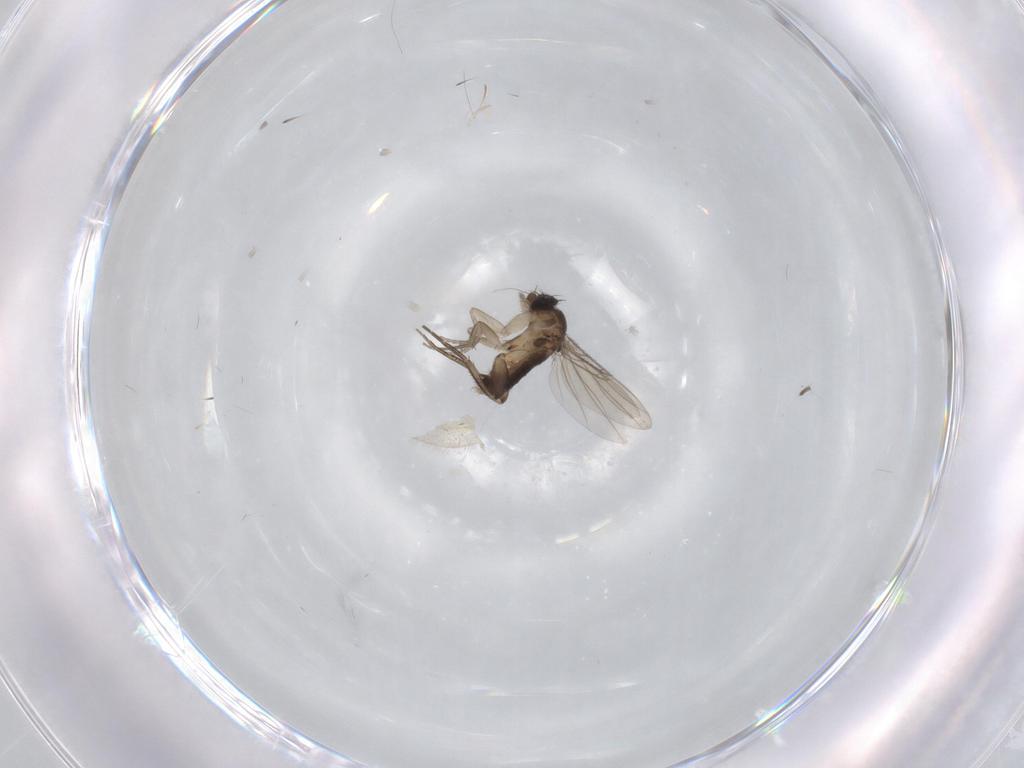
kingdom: Animalia
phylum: Arthropoda
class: Insecta
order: Diptera
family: Phoridae
